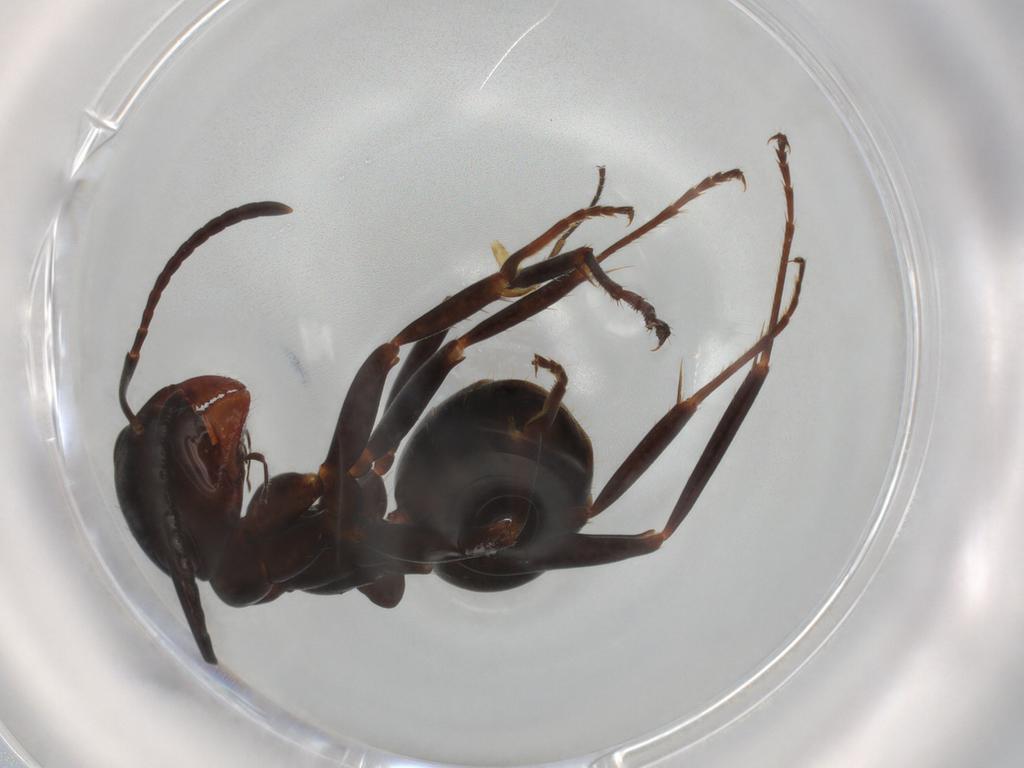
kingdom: Animalia
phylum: Arthropoda
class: Insecta
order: Hymenoptera
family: Formicidae
